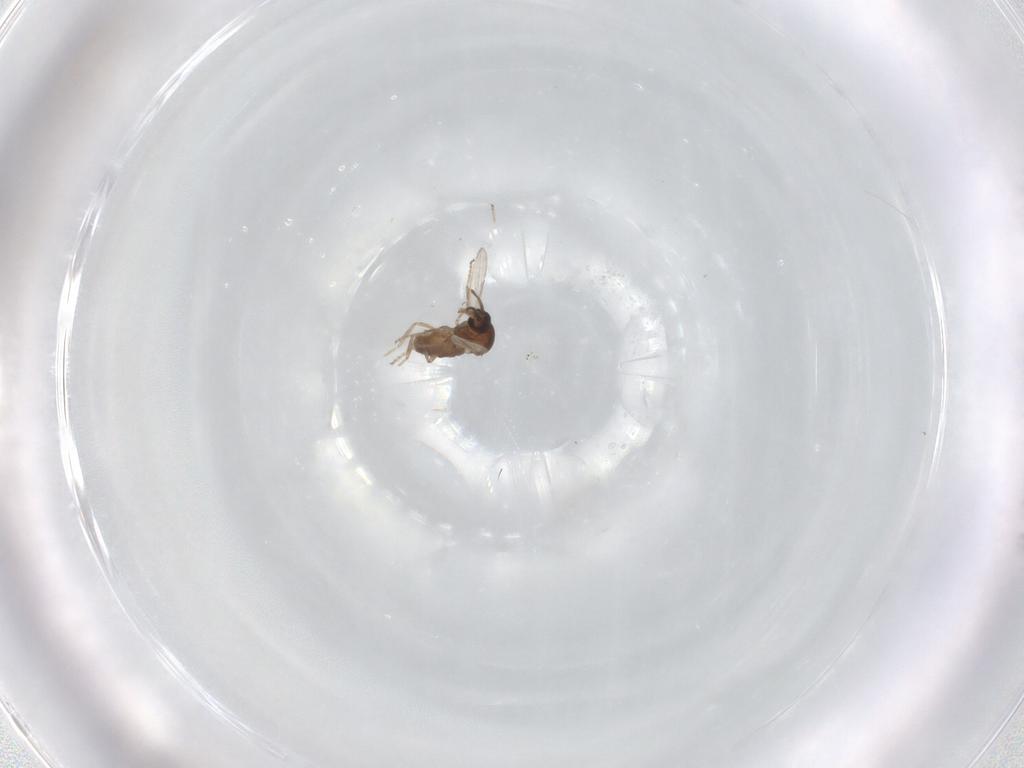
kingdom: Animalia
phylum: Arthropoda
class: Insecta
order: Diptera
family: Ceratopogonidae
